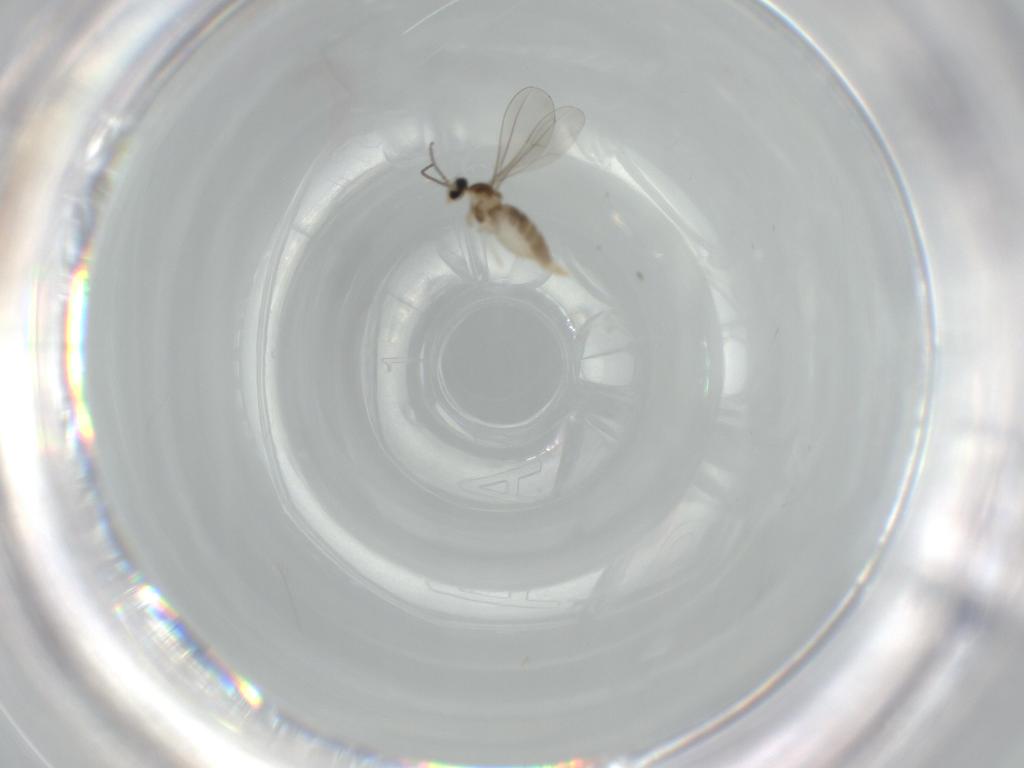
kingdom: Animalia
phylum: Arthropoda
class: Insecta
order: Diptera
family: Cecidomyiidae
